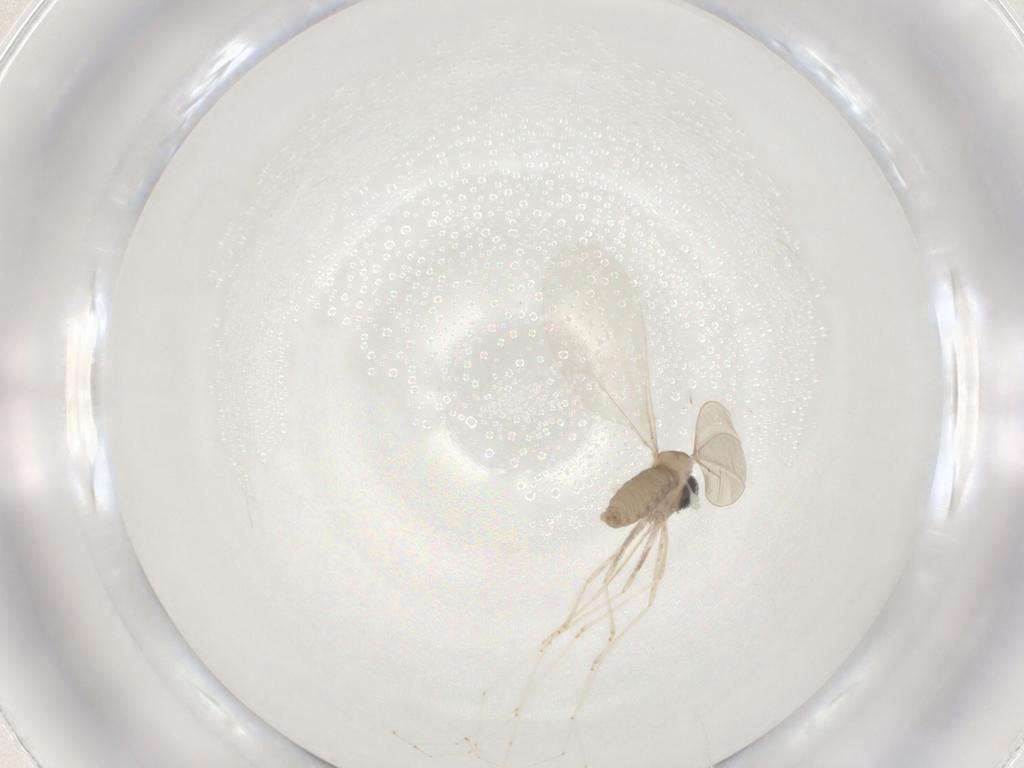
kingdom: Animalia
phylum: Arthropoda
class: Insecta
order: Diptera
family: Cecidomyiidae
